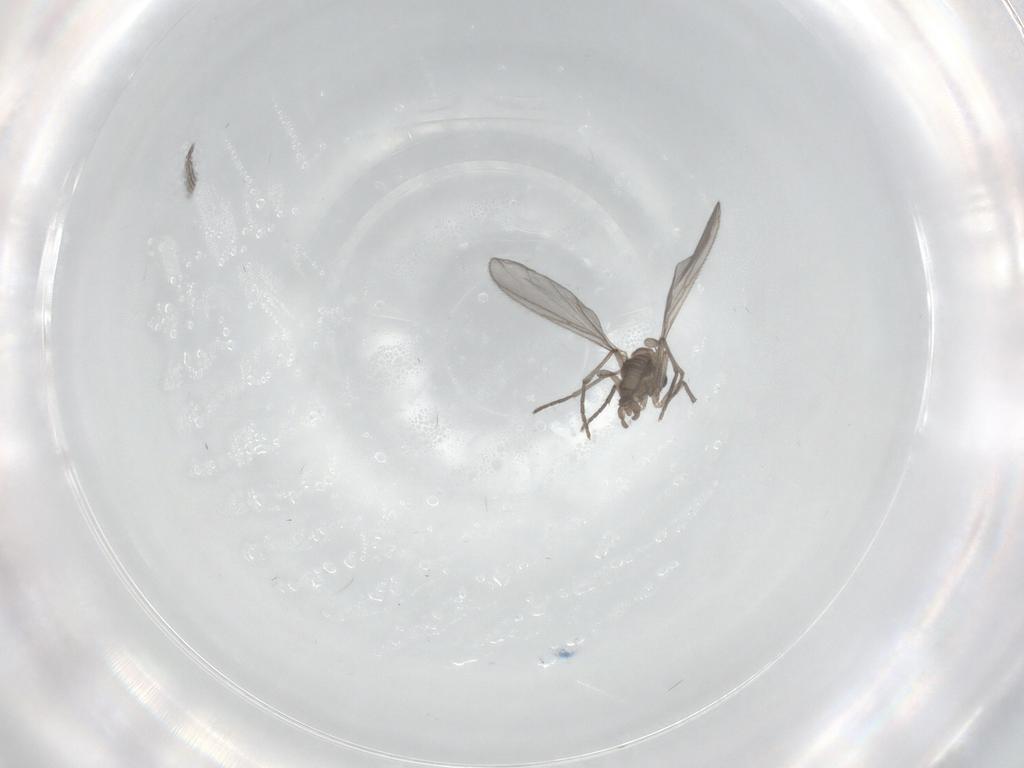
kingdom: Animalia
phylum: Arthropoda
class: Insecta
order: Diptera
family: Sciaridae
